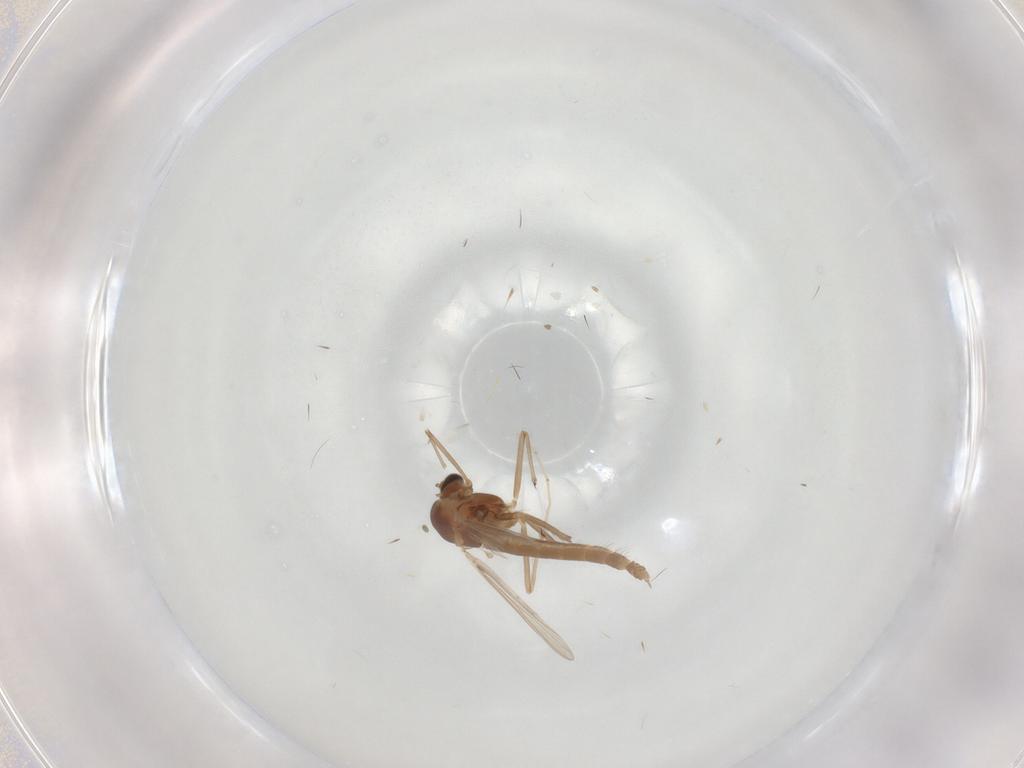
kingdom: Animalia
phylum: Arthropoda
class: Insecta
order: Diptera
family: Chironomidae
